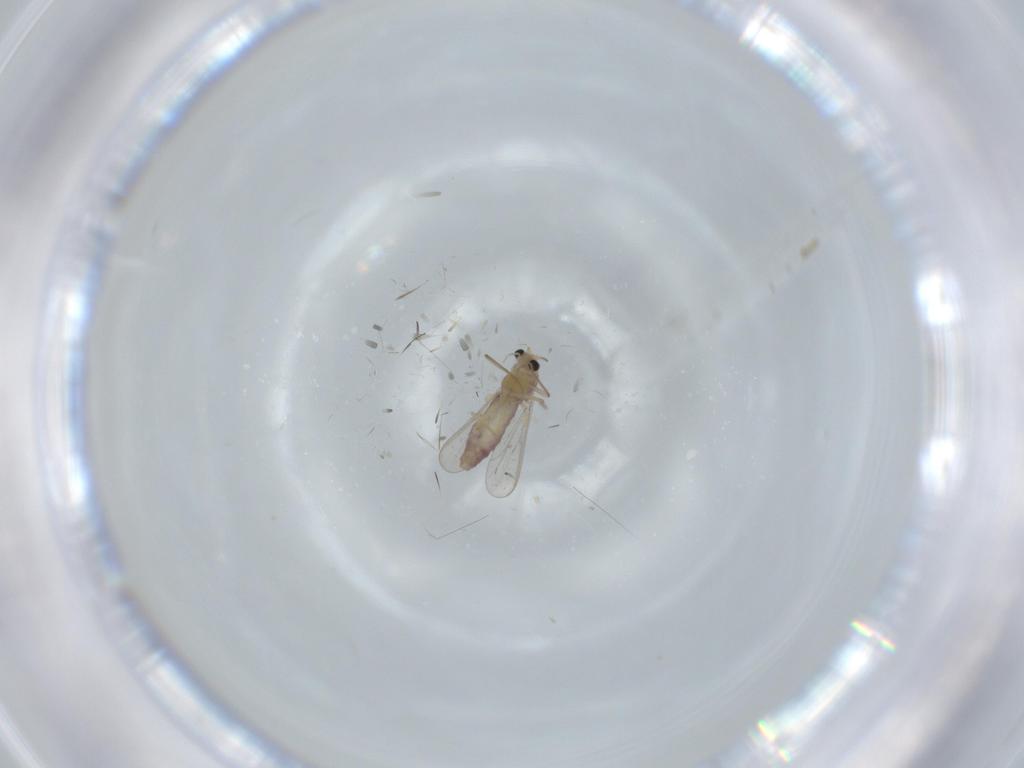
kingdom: Animalia
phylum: Arthropoda
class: Insecta
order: Diptera
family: Chironomidae
